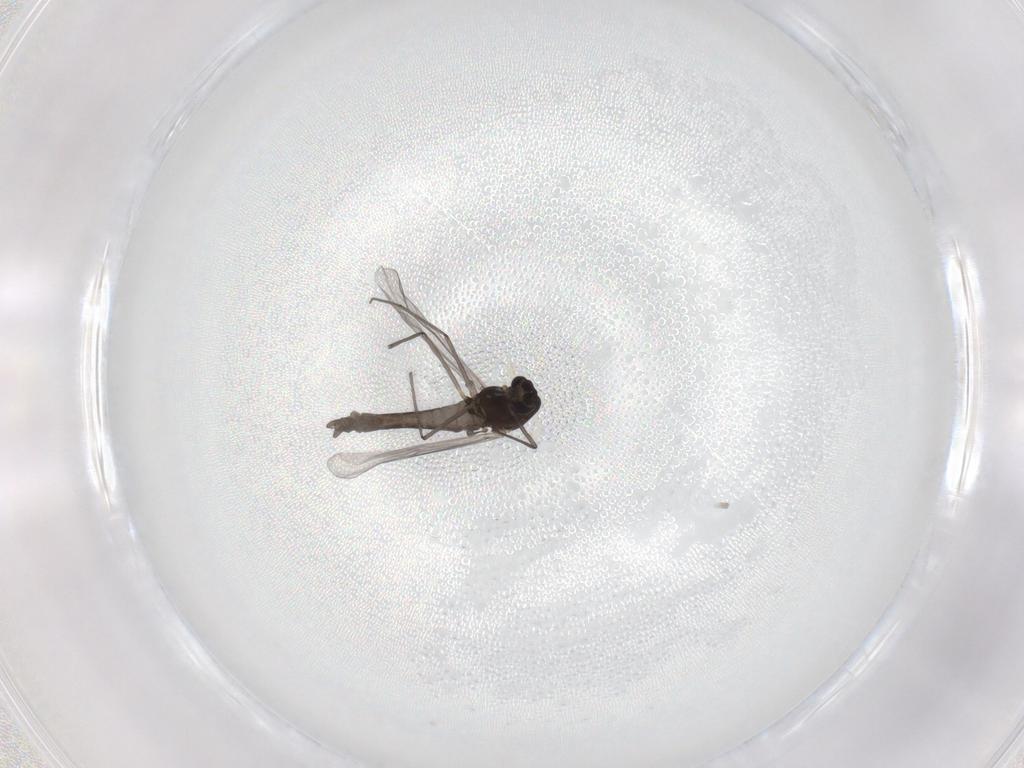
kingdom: Animalia
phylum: Arthropoda
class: Insecta
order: Diptera
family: Chironomidae
